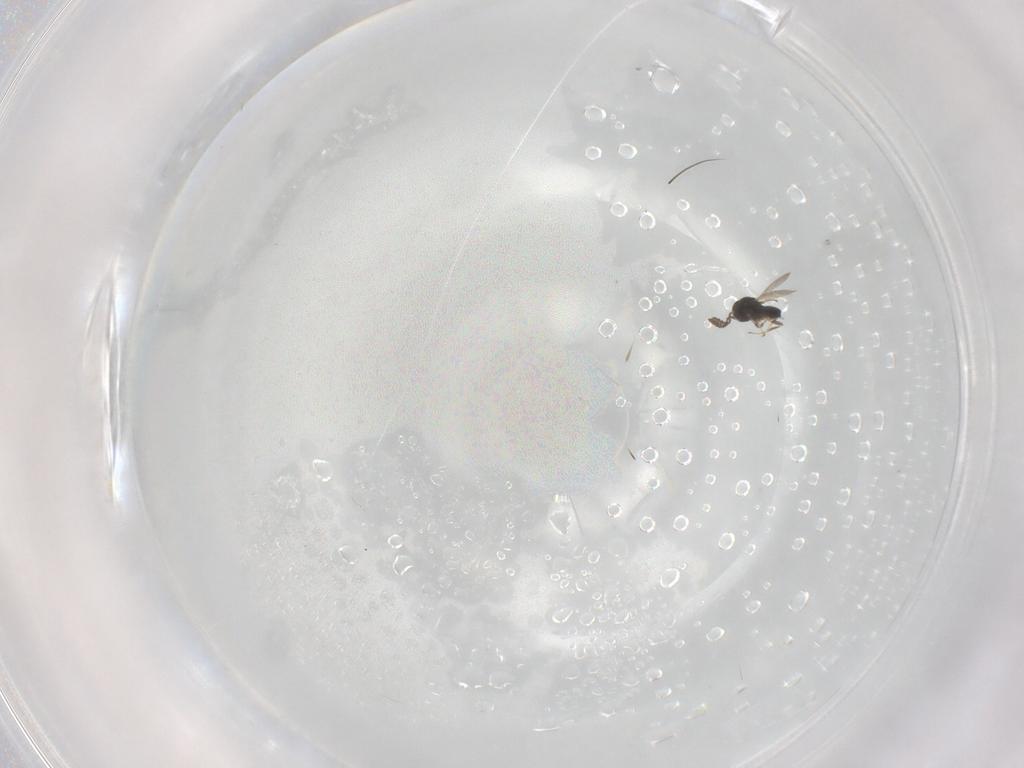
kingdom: Animalia
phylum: Arthropoda
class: Insecta
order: Hymenoptera
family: Scelionidae
